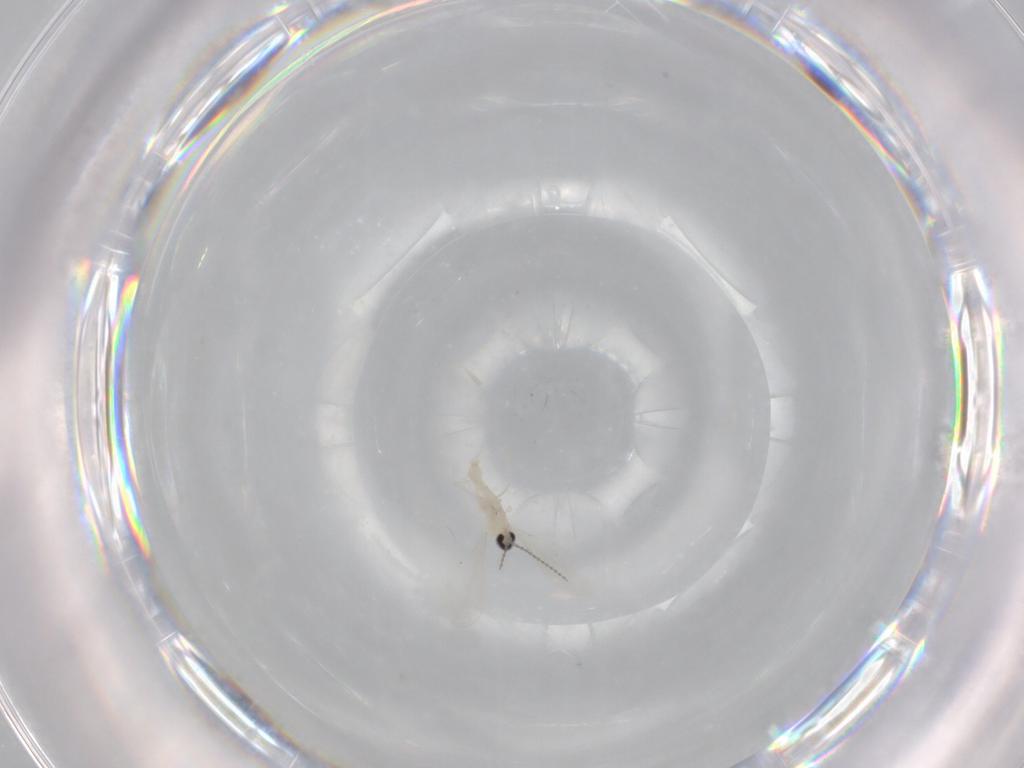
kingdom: Animalia
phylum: Arthropoda
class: Insecta
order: Diptera
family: Cecidomyiidae
